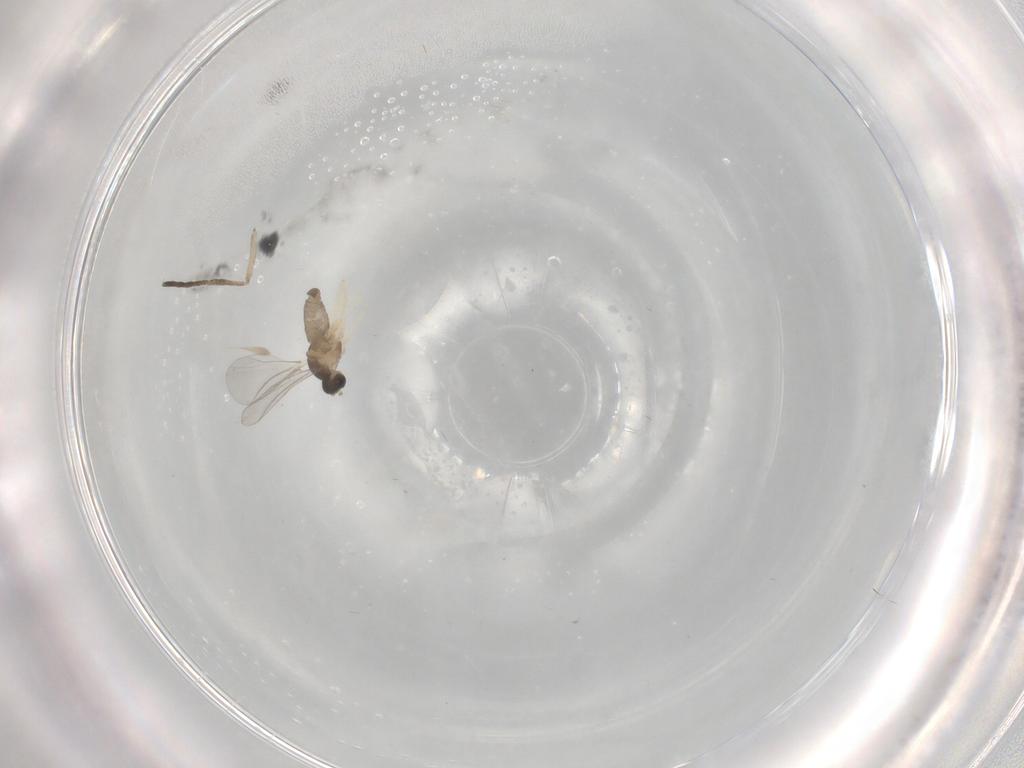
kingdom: Animalia
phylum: Arthropoda
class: Insecta
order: Diptera
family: Cecidomyiidae
